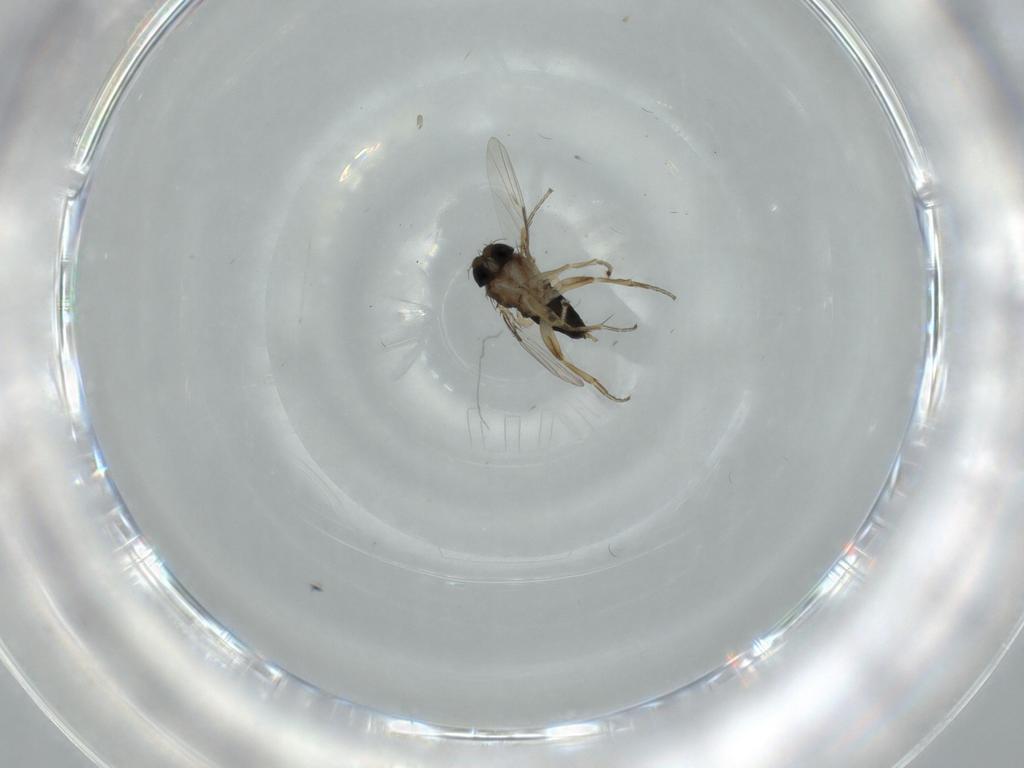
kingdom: Animalia
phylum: Arthropoda
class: Insecta
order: Diptera
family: Phoridae
